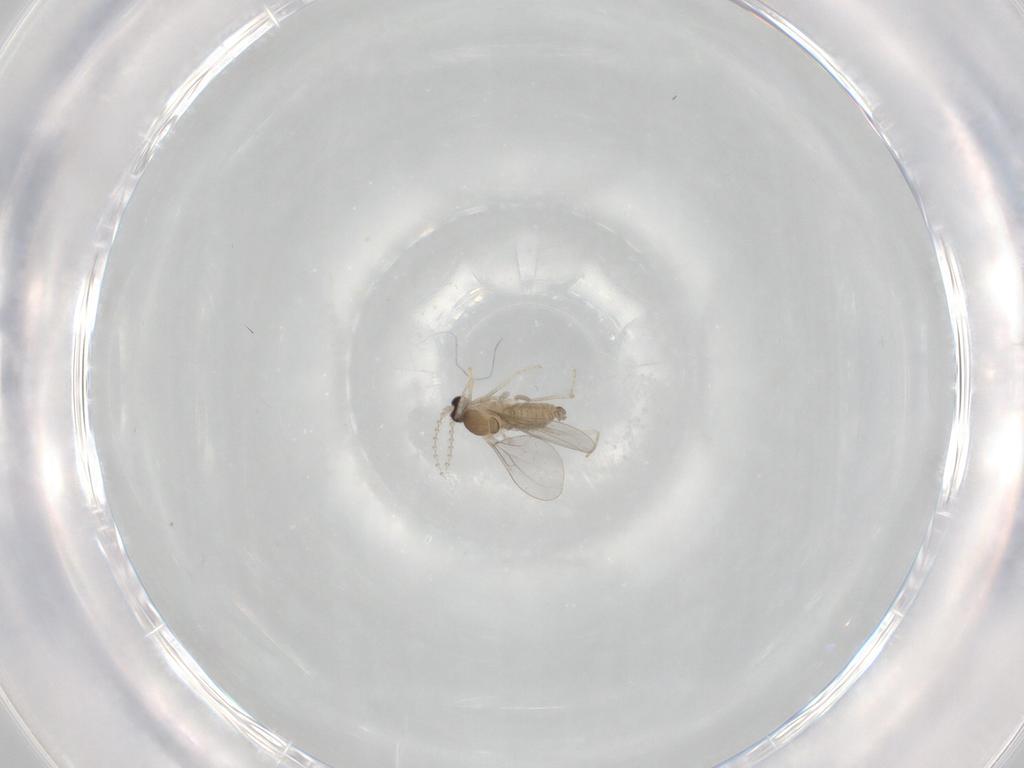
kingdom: Animalia
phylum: Arthropoda
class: Insecta
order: Diptera
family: Cecidomyiidae
